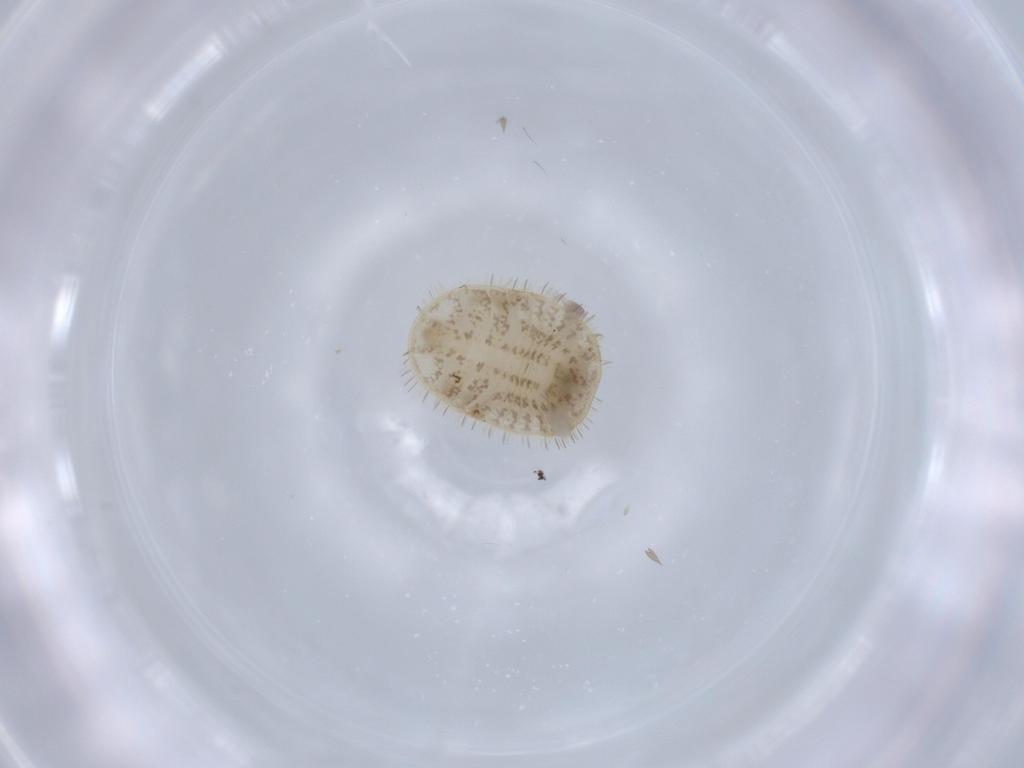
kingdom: Animalia
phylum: Arthropoda
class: Insecta
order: Coleoptera
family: Corylophidae
